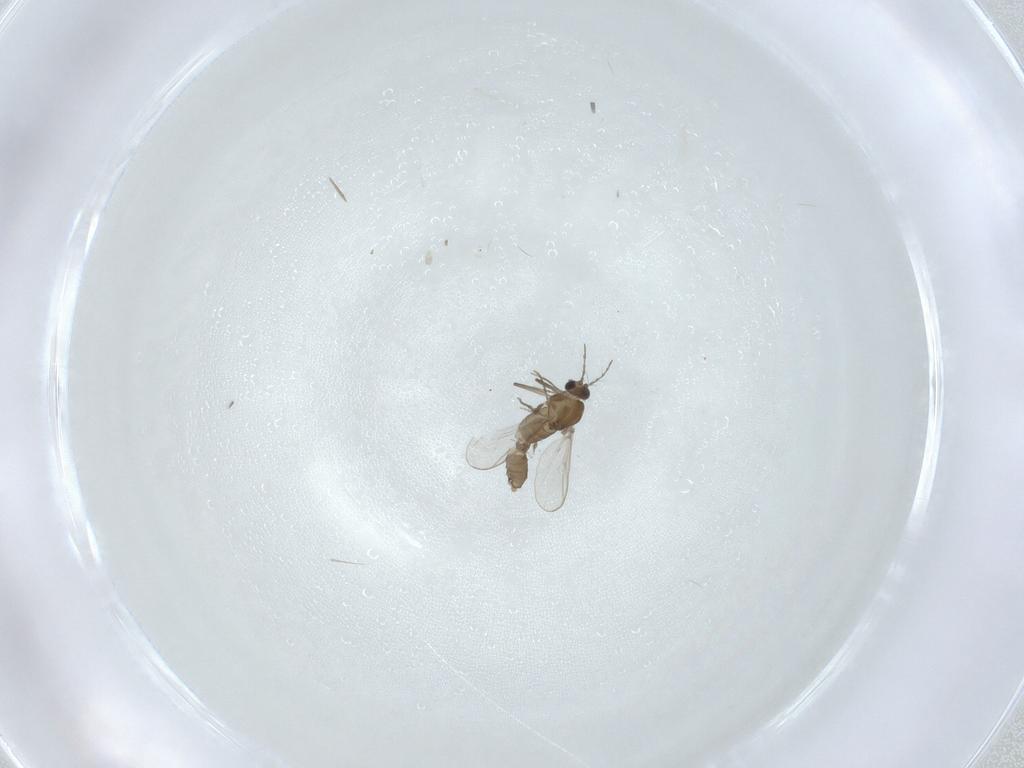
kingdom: Animalia
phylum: Arthropoda
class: Insecta
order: Diptera
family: Chironomidae
